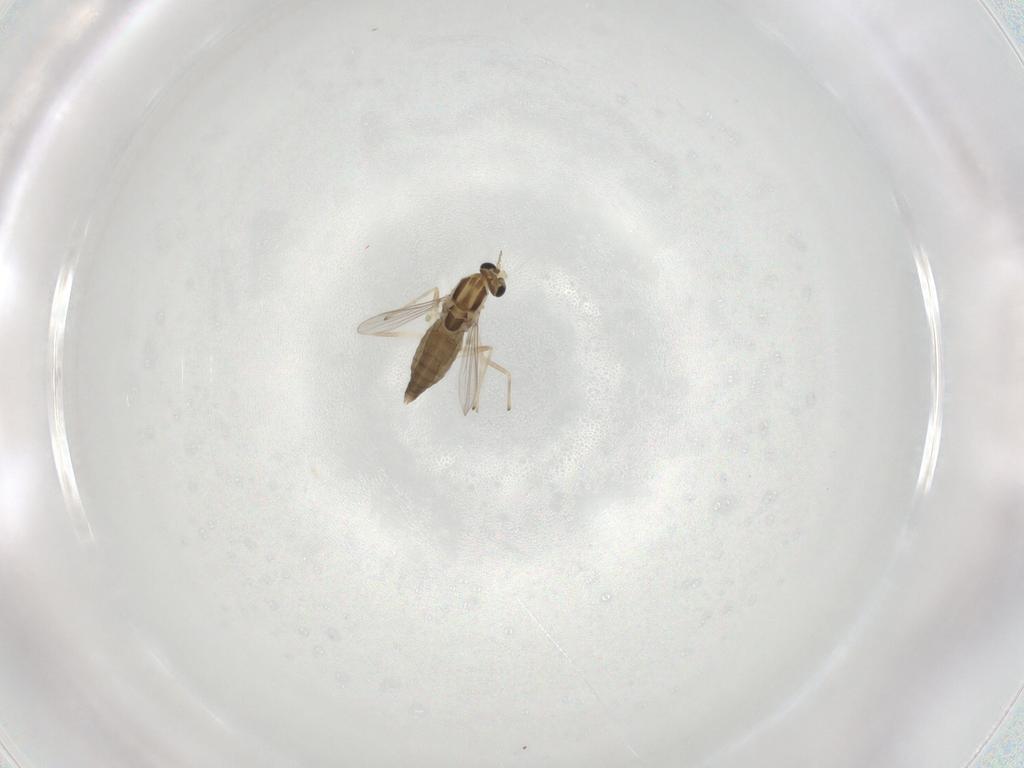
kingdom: Animalia
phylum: Arthropoda
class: Insecta
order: Diptera
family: Chironomidae
